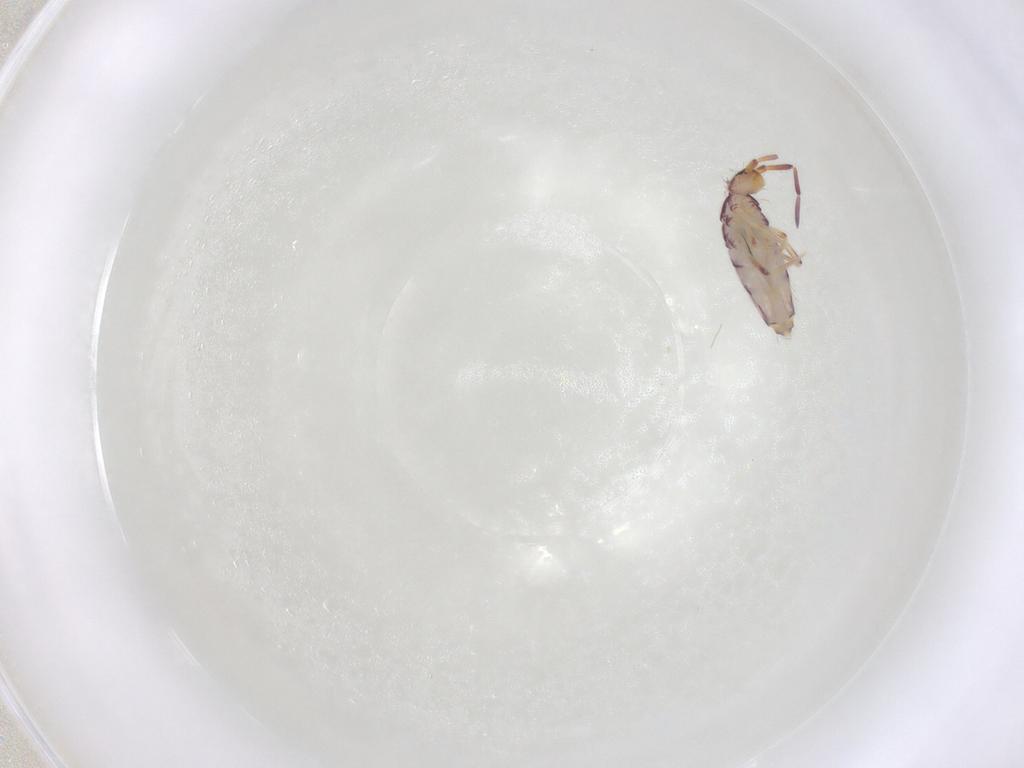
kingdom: Animalia
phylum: Arthropoda
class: Collembola
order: Entomobryomorpha
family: Entomobryidae
